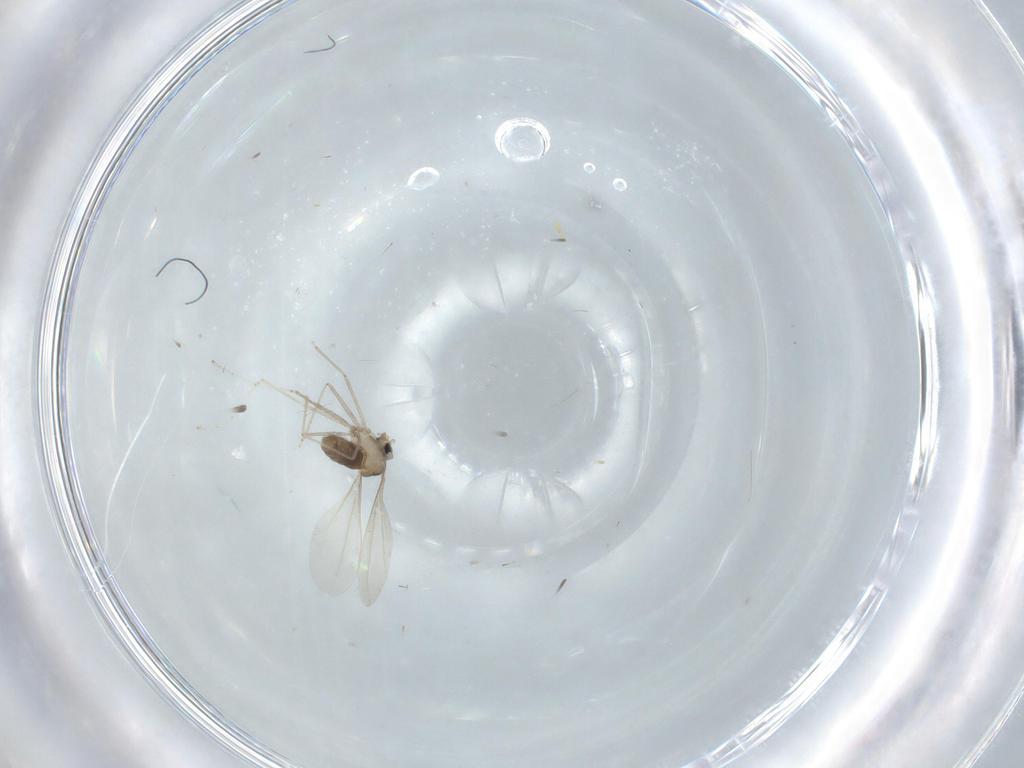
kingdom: Animalia
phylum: Arthropoda
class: Insecta
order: Diptera
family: Cecidomyiidae
